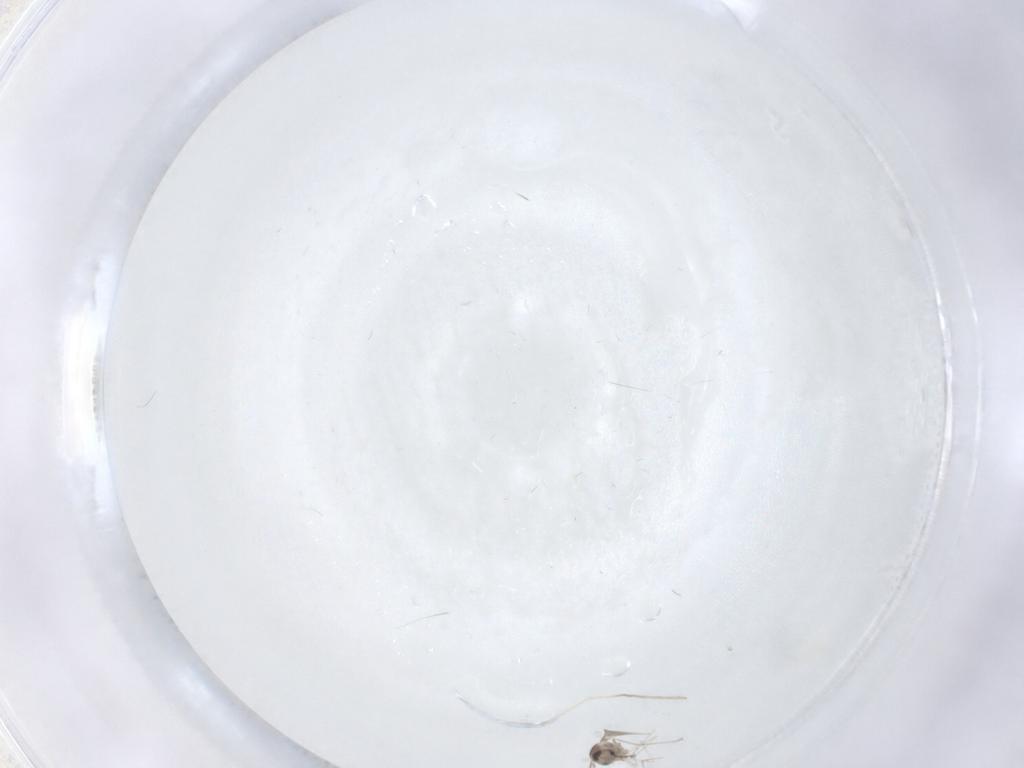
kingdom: Animalia
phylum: Arthropoda
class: Insecta
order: Diptera
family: Chironomidae
